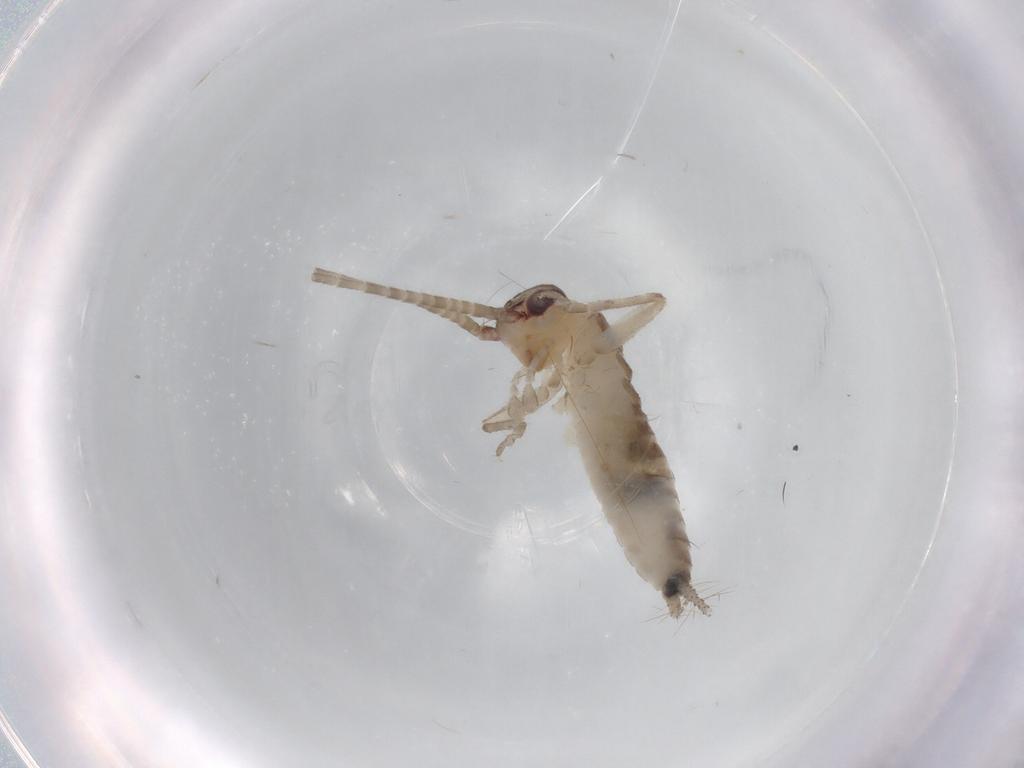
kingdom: Animalia
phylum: Arthropoda
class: Insecta
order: Orthoptera
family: Gryllidae
